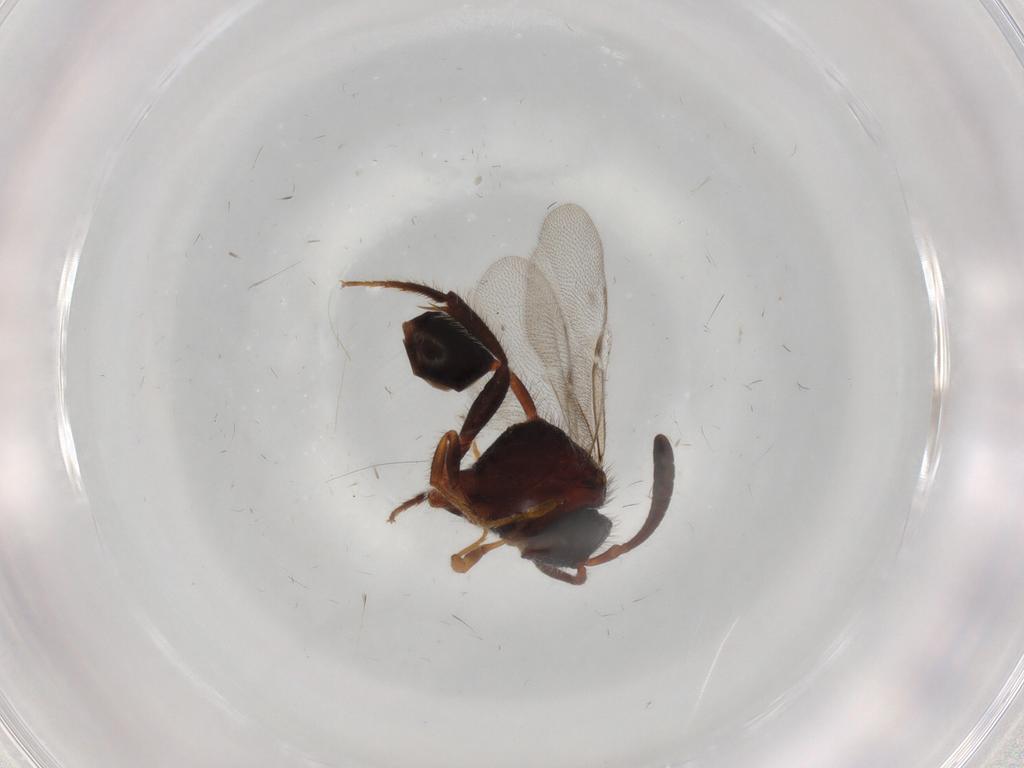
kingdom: Animalia
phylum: Arthropoda
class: Insecta
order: Hymenoptera
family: Evaniidae
